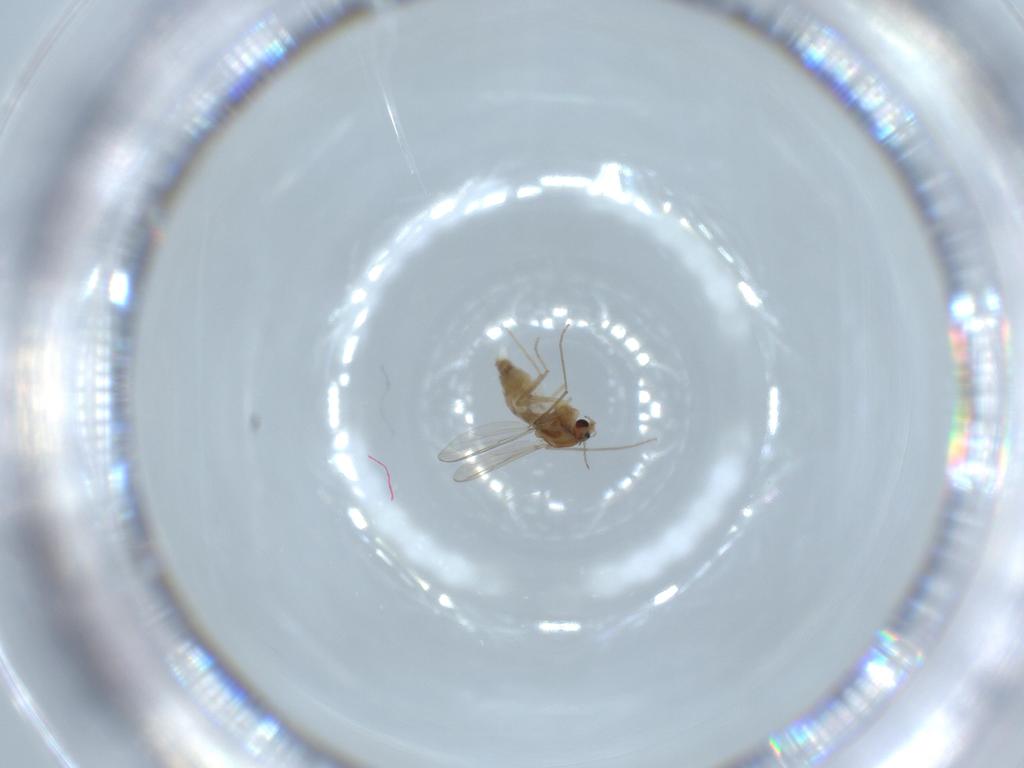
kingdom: Animalia
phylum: Arthropoda
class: Insecta
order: Diptera
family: Chironomidae
